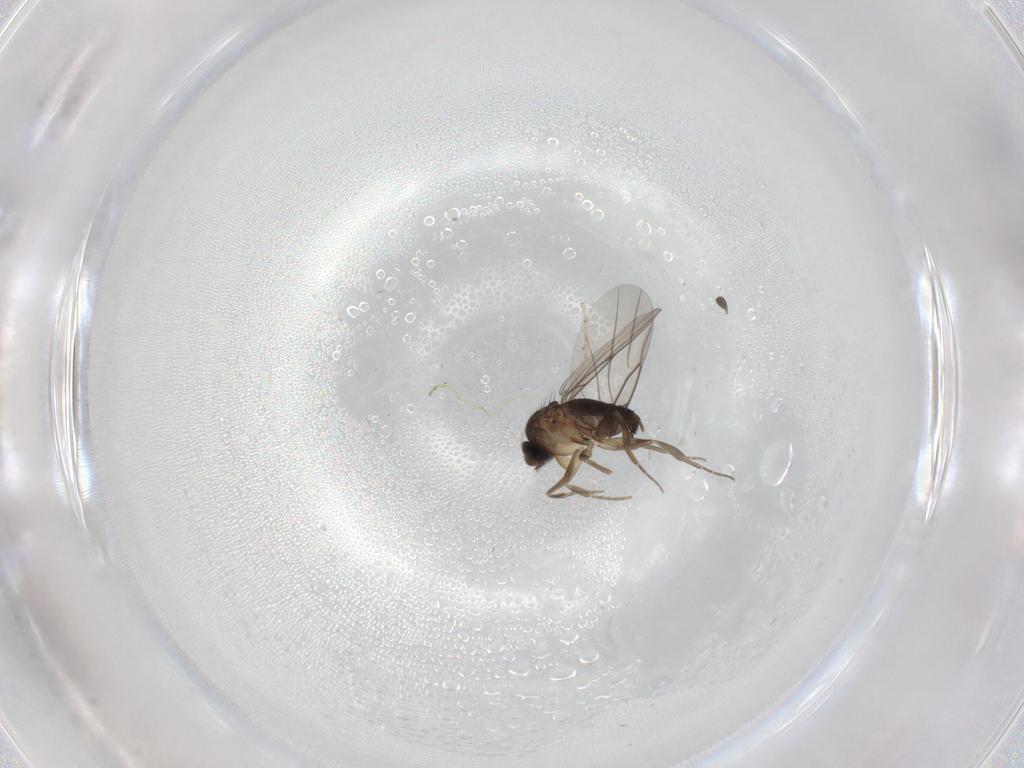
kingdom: Animalia
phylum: Arthropoda
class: Insecta
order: Diptera
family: Phoridae
